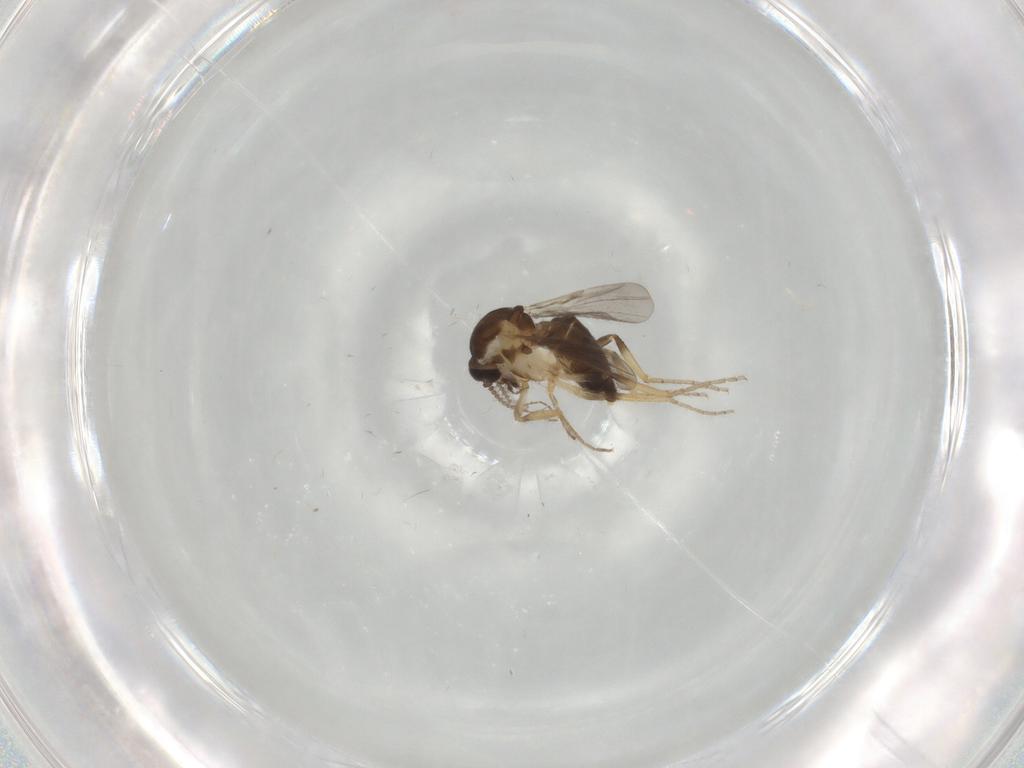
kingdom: Animalia
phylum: Arthropoda
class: Insecta
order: Diptera
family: Ceratopogonidae
